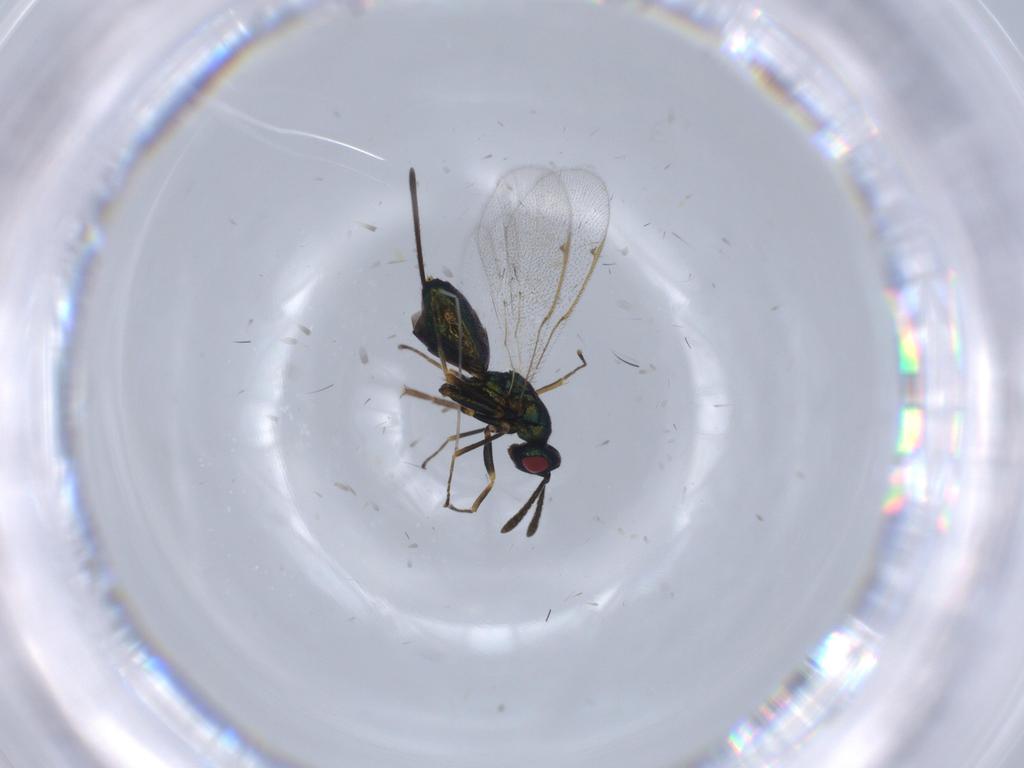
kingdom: Animalia
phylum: Arthropoda
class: Insecta
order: Hymenoptera
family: Torymidae
